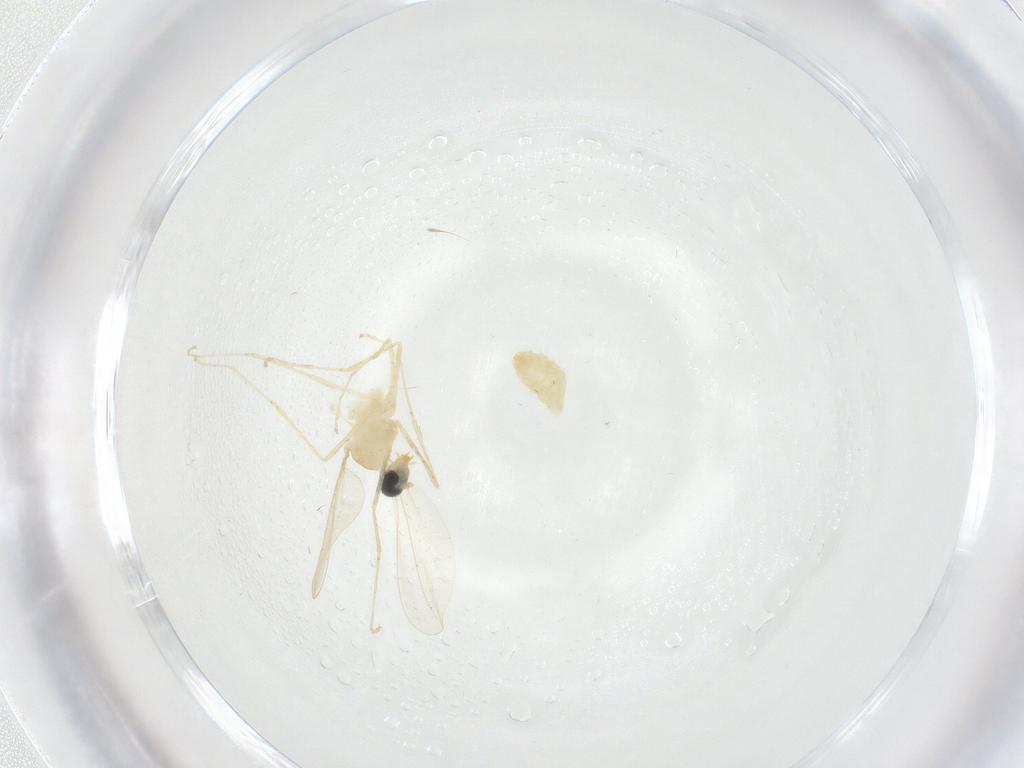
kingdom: Animalia
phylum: Arthropoda
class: Insecta
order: Diptera
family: Cecidomyiidae
